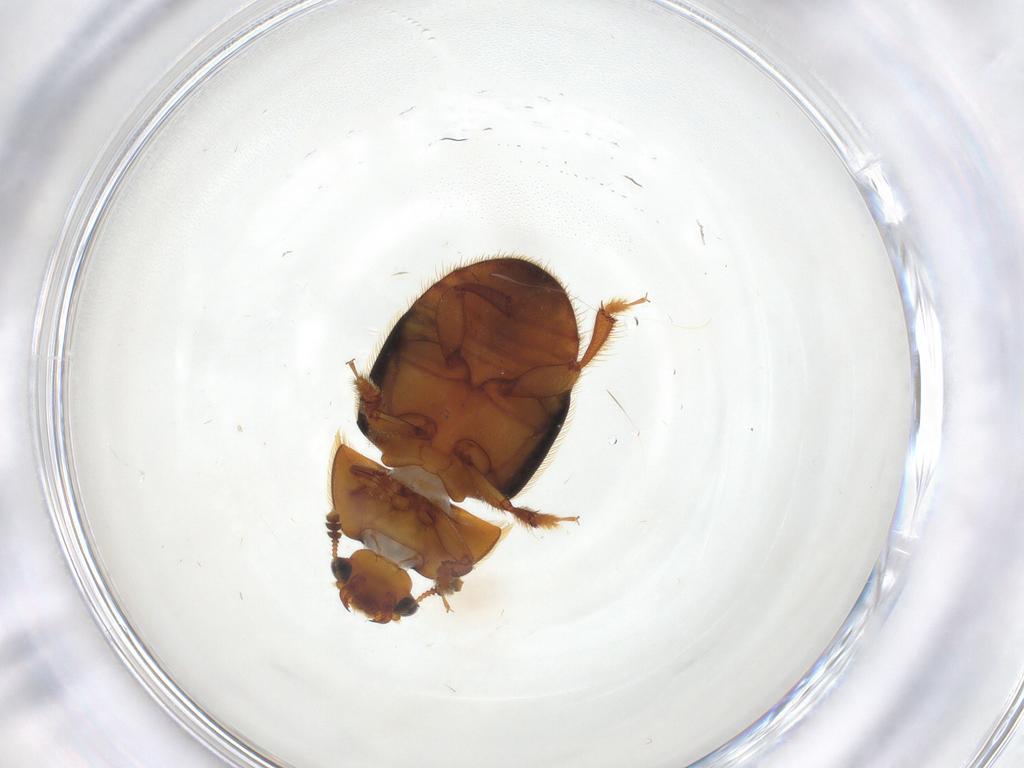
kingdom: Animalia
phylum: Arthropoda
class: Insecta
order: Coleoptera
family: Nitidulidae
